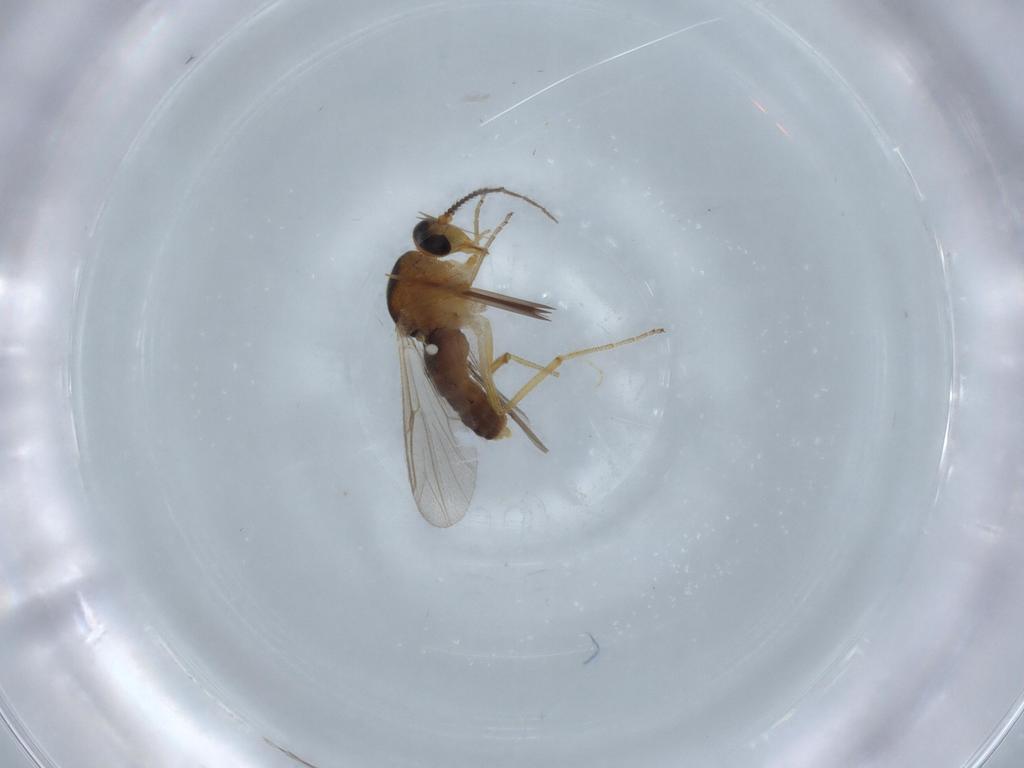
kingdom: Animalia
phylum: Arthropoda
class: Insecta
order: Diptera
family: Ceratopogonidae
